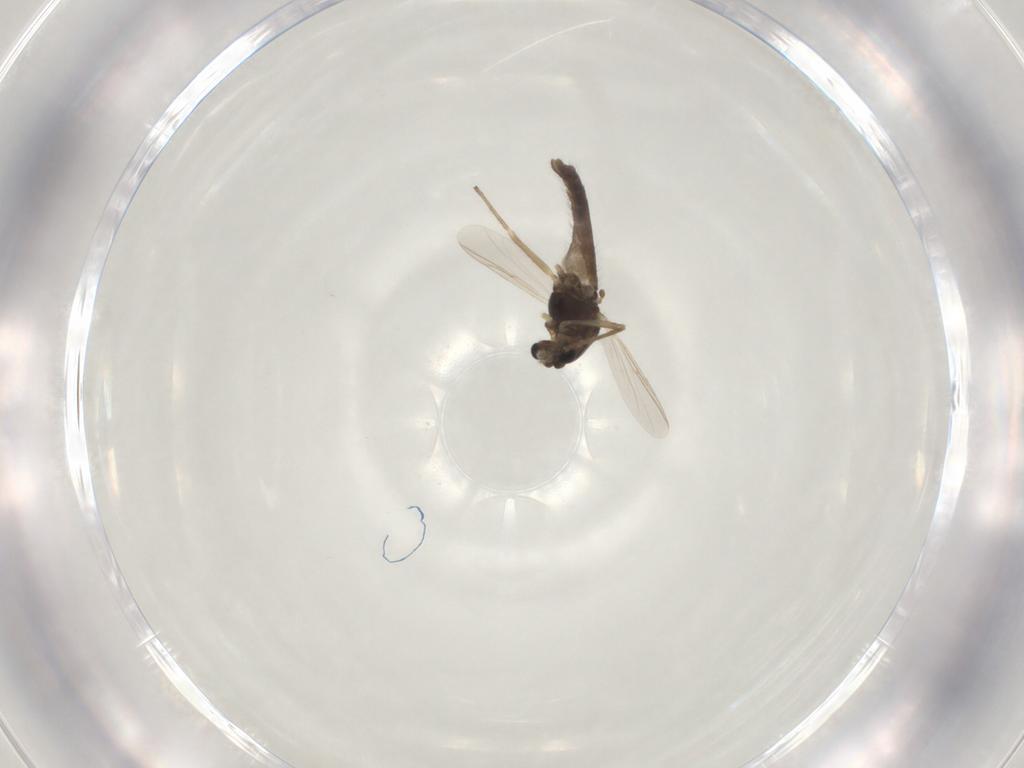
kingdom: Animalia
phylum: Arthropoda
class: Insecta
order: Diptera
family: Chironomidae
